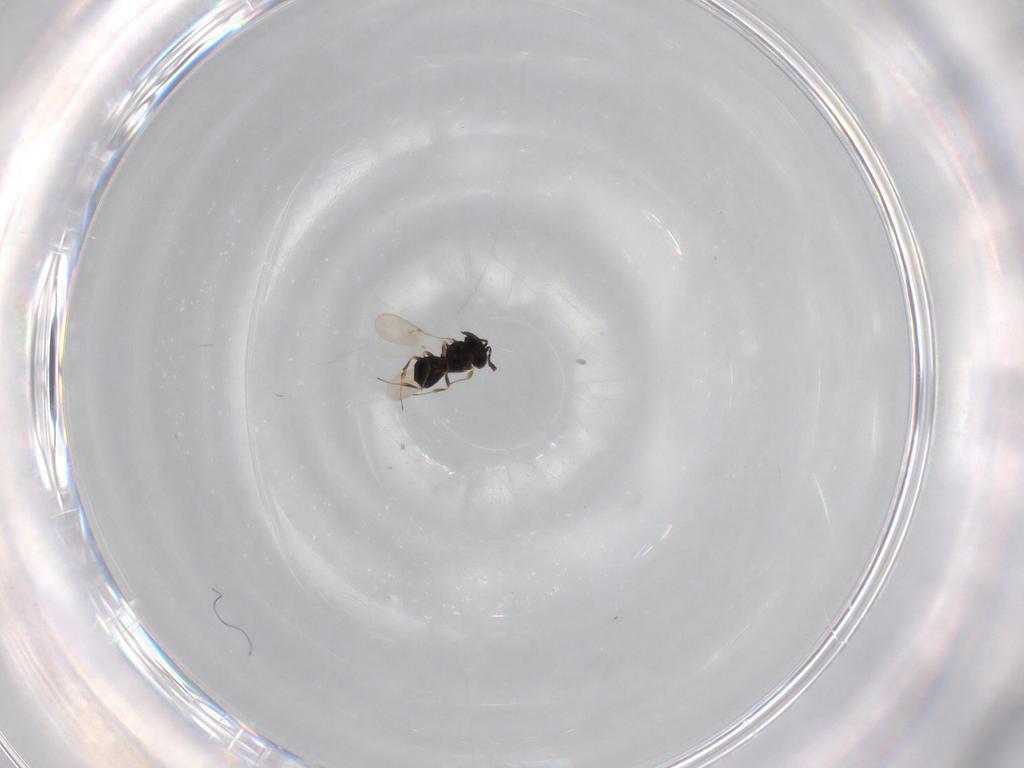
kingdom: Animalia
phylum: Arthropoda
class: Insecta
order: Hymenoptera
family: Scelionidae
